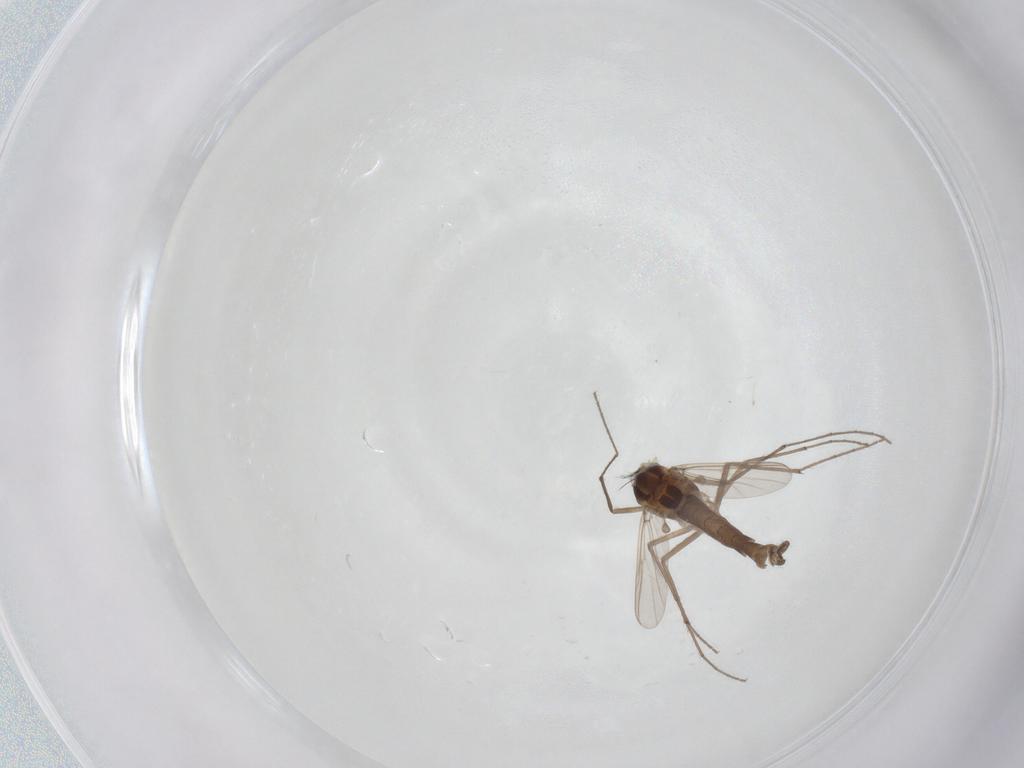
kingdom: Animalia
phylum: Arthropoda
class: Insecta
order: Diptera
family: Chironomidae
